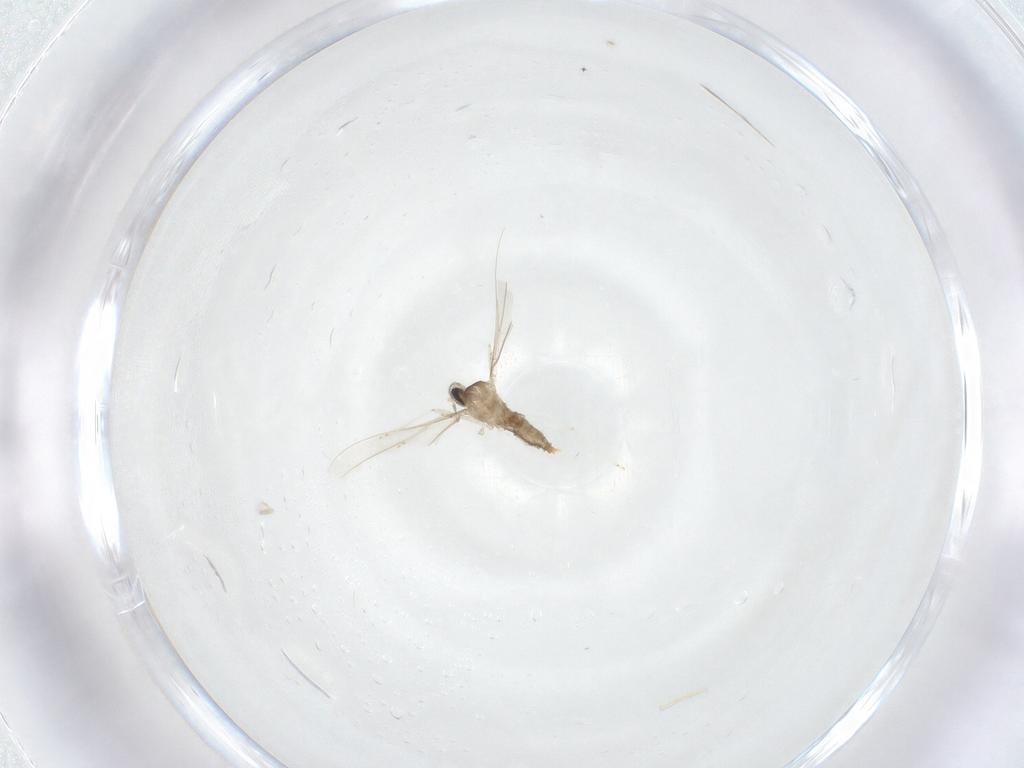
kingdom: Animalia
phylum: Arthropoda
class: Insecta
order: Diptera
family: Cecidomyiidae
